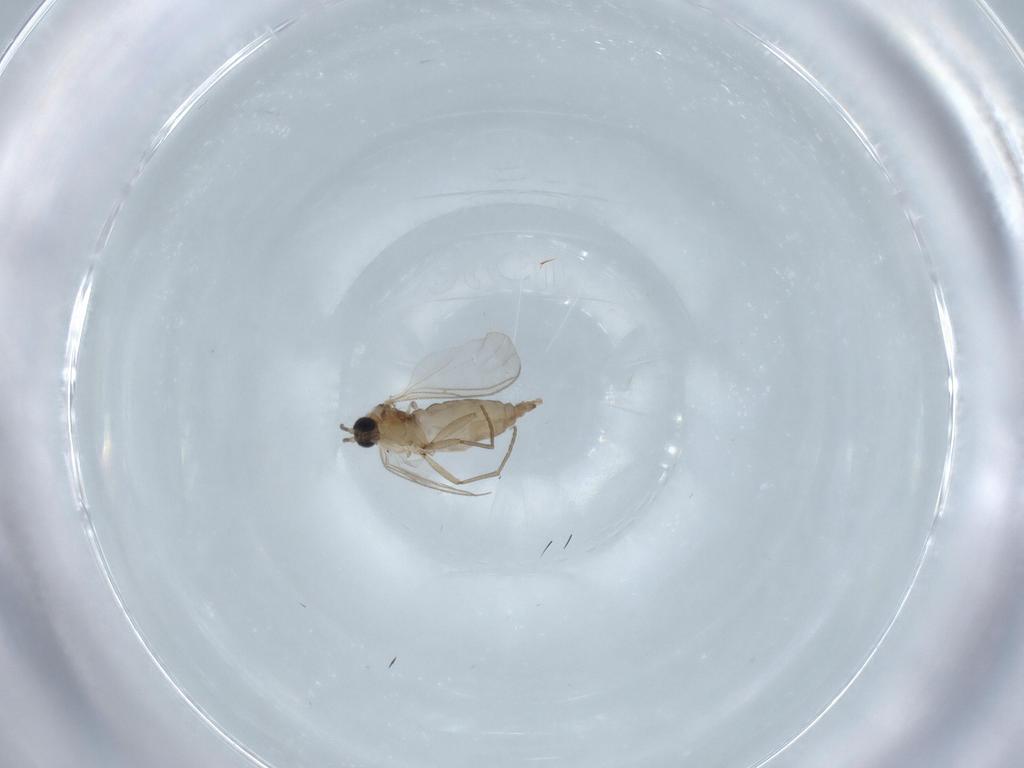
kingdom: Animalia
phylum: Arthropoda
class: Insecta
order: Diptera
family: Sciaridae
